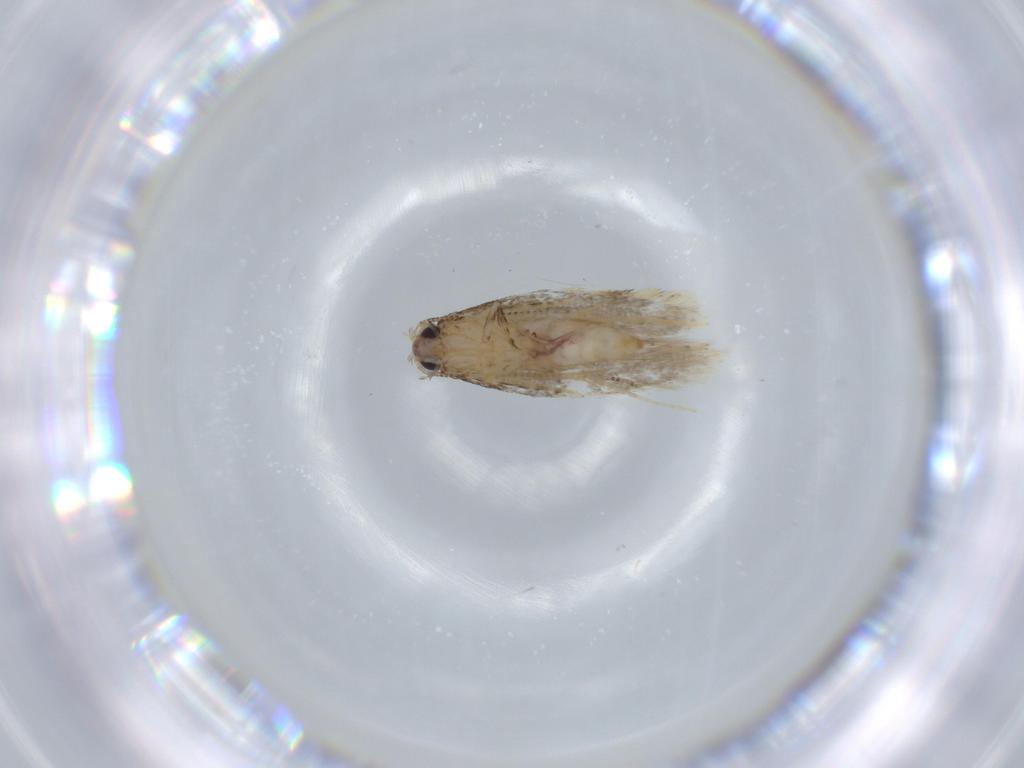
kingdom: Animalia
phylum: Arthropoda
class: Insecta
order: Lepidoptera
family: Tineidae
